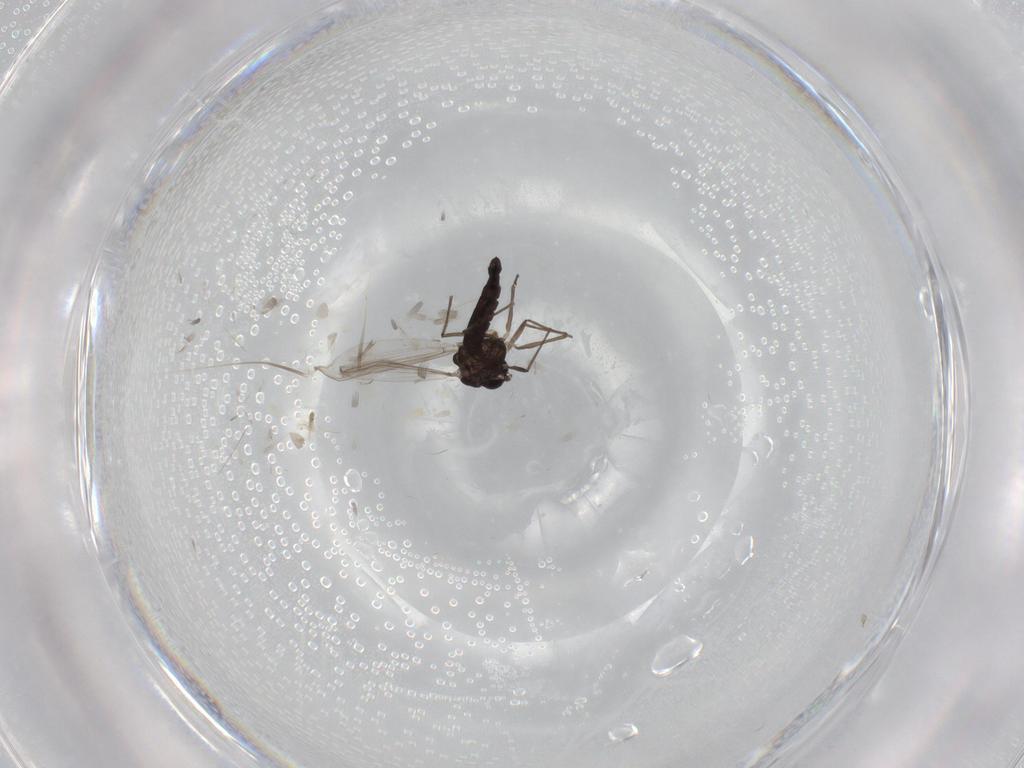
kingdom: Animalia
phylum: Arthropoda
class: Insecta
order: Diptera
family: Chironomidae
